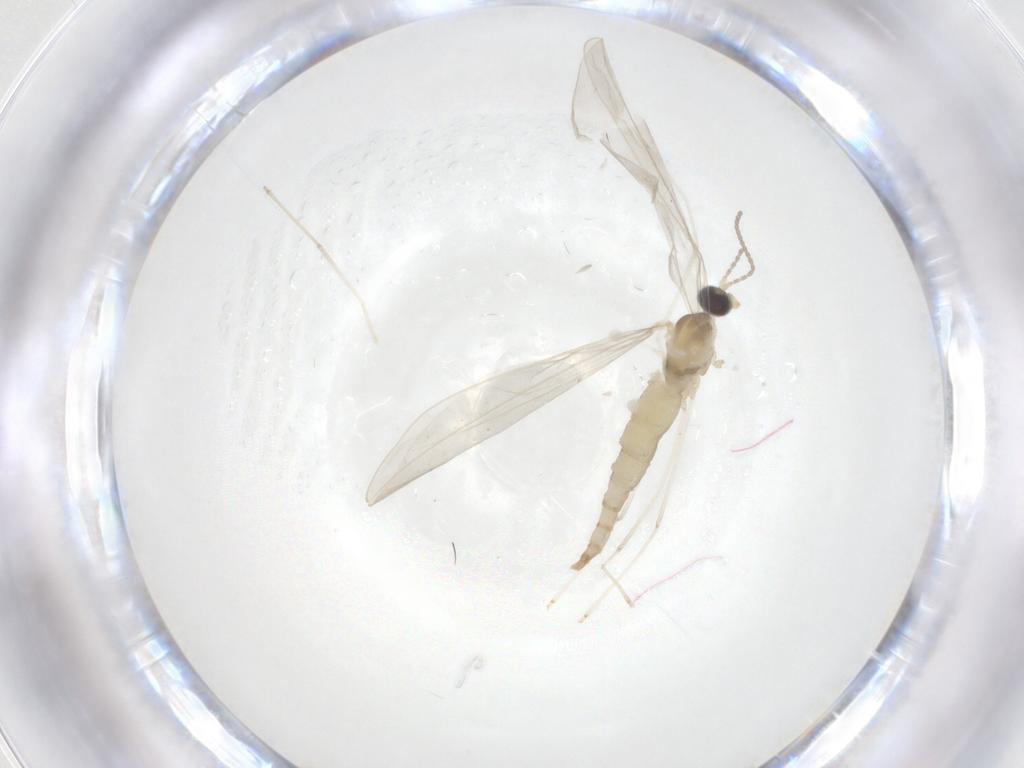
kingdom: Animalia
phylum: Arthropoda
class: Insecta
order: Diptera
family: Cecidomyiidae
